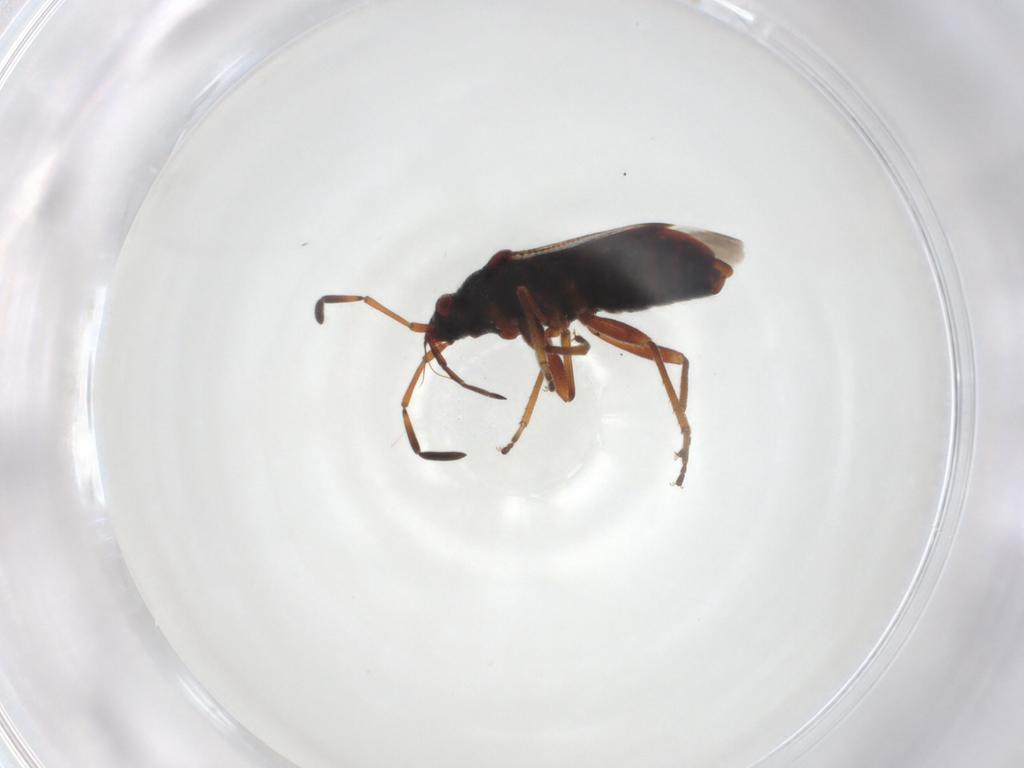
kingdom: Animalia
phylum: Arthropoda
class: Insecta
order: Hemiptera
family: Rhyparochromidae
